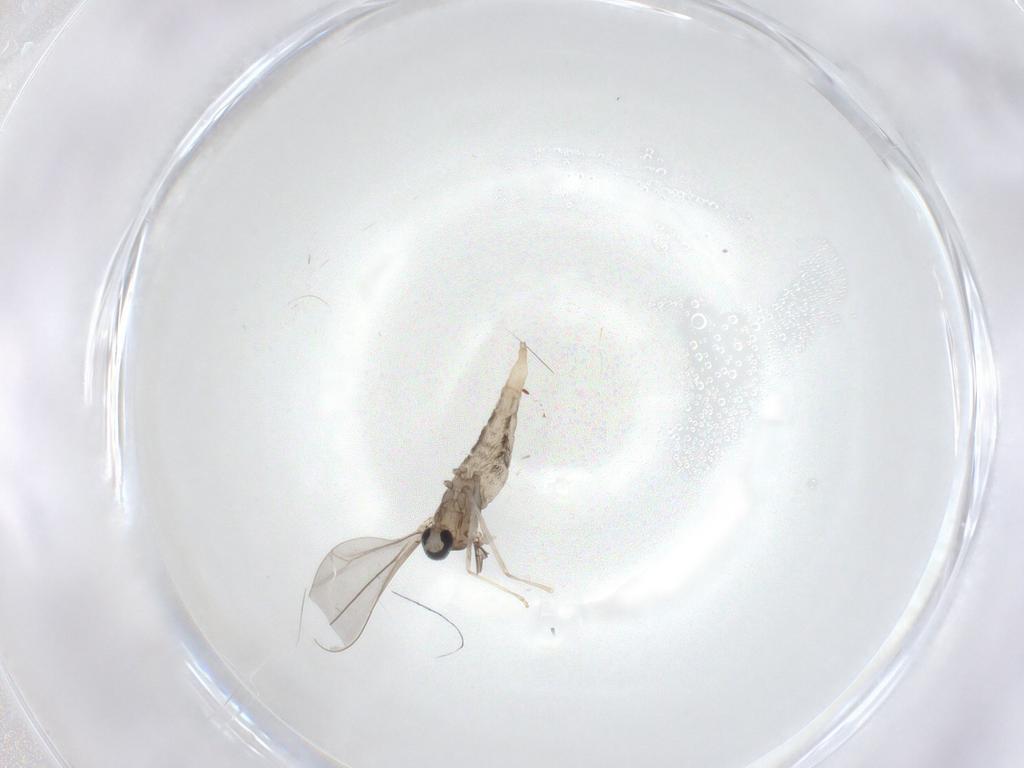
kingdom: Animalia
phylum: Arthropoda
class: Insecta
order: Diptera
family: Cecidomyiidae
